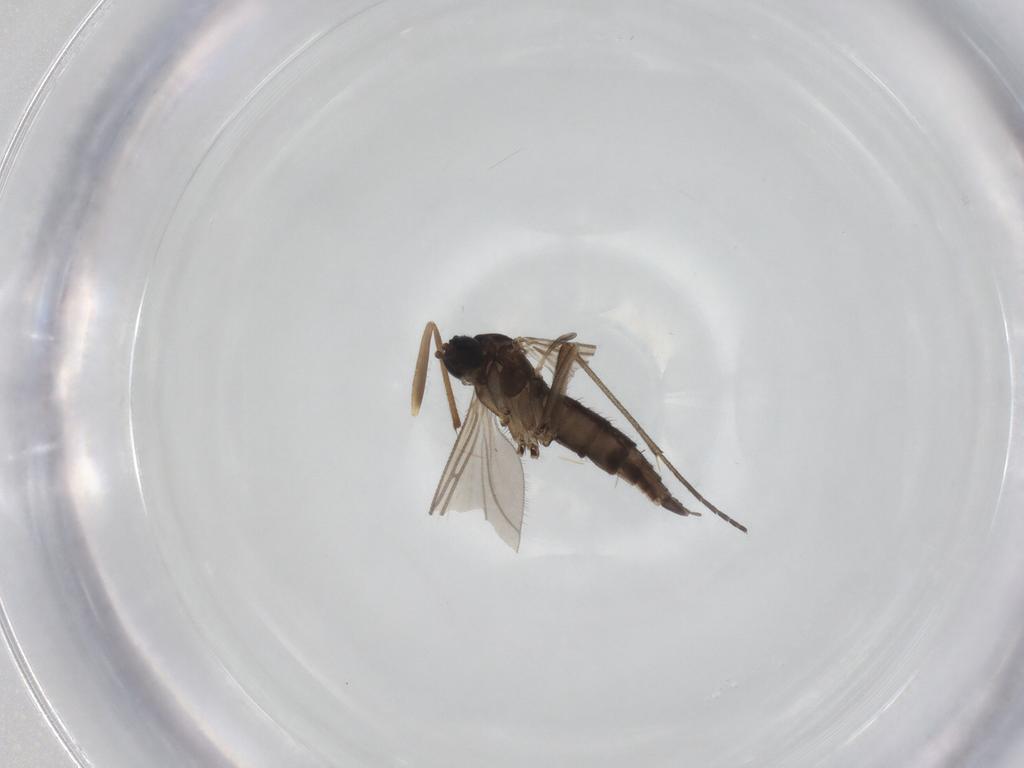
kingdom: Animalia
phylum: Arthropoda
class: Insecta
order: Diptera
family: Sciaridae
